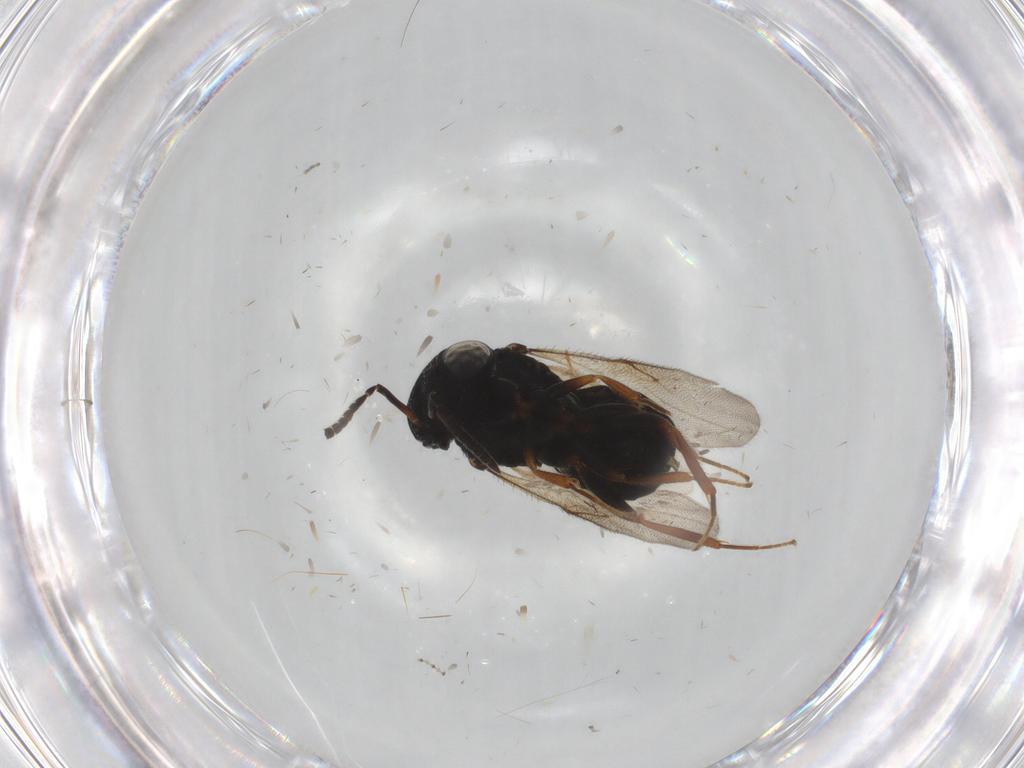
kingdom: Animalia
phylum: Arthropoda
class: Insecta
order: Hymenoptera
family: Scelionidae
